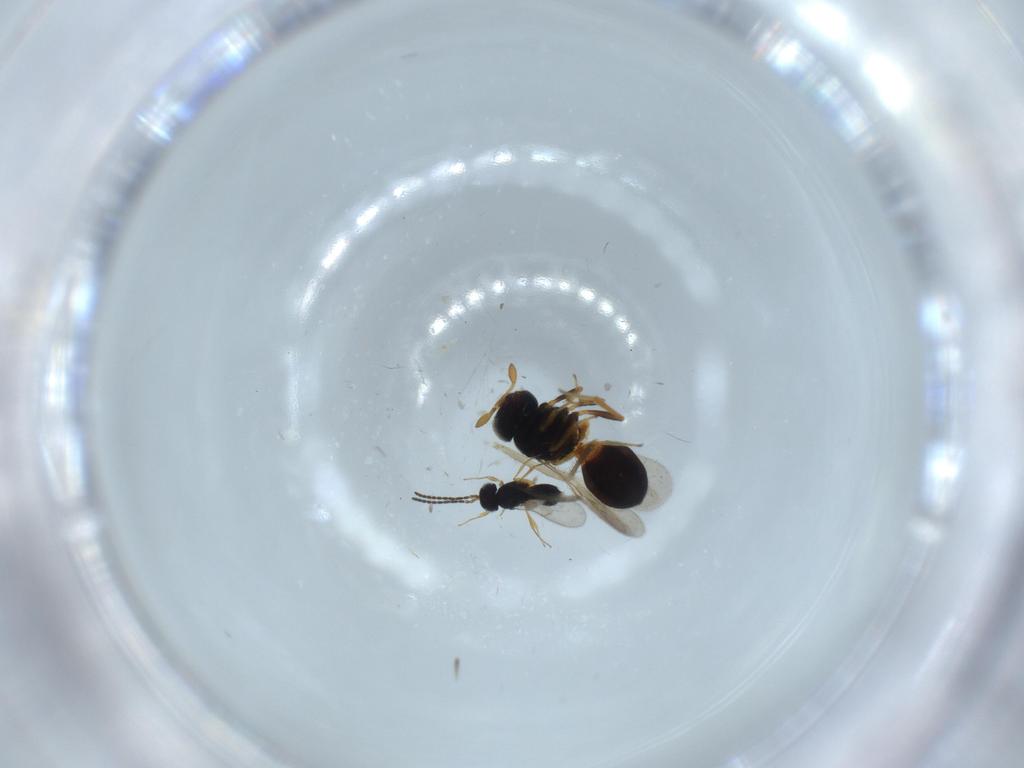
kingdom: Animalia
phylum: Arthropoda
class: Insecta
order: Hymenoptera
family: Scelionidae
